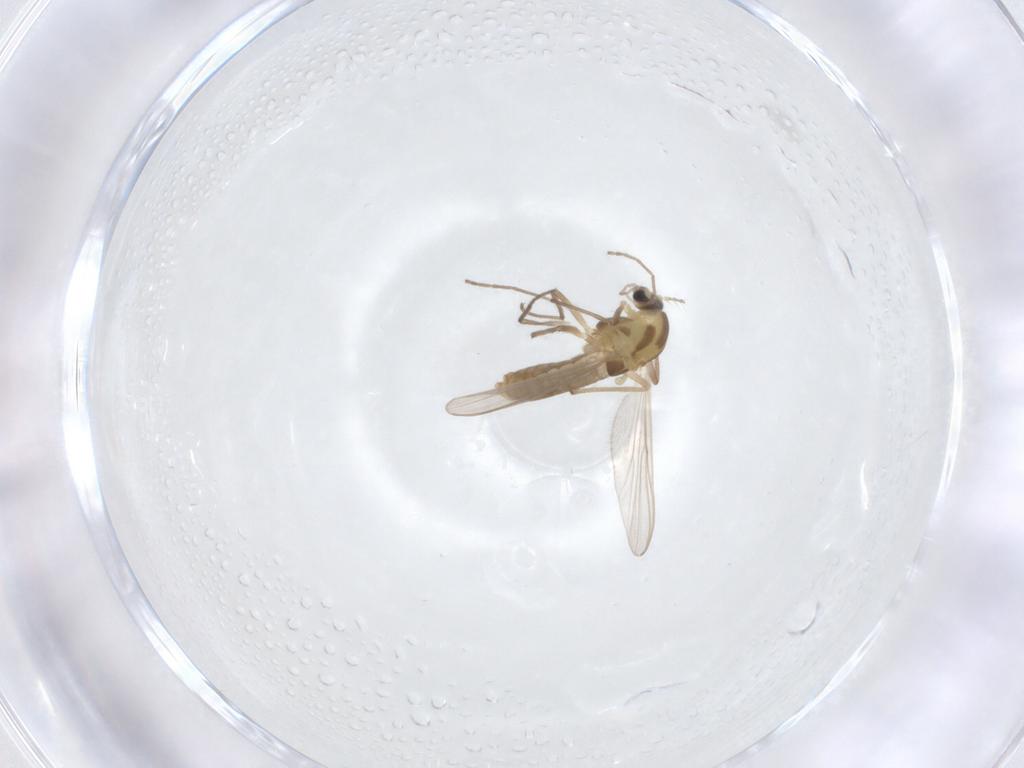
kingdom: Animalia
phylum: Arthropoda
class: Insecta
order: Diptera
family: Chironomidae
